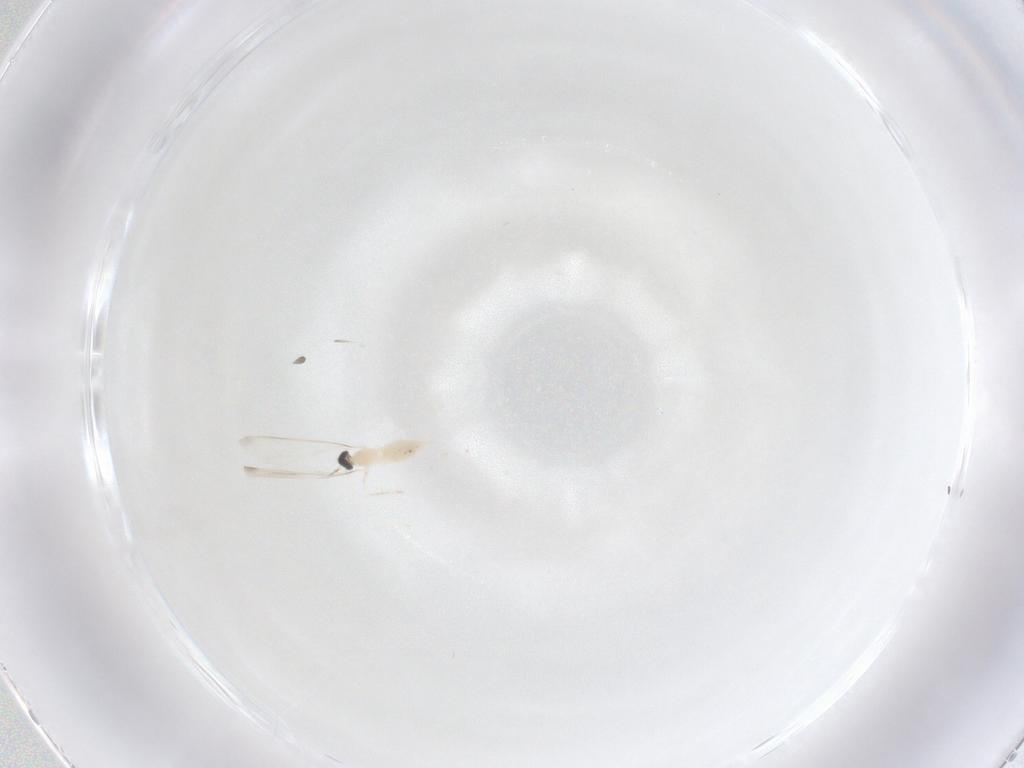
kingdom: Animalia
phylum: Arthropoda
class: Insecta
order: Diptera
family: Cecidomyiidae
